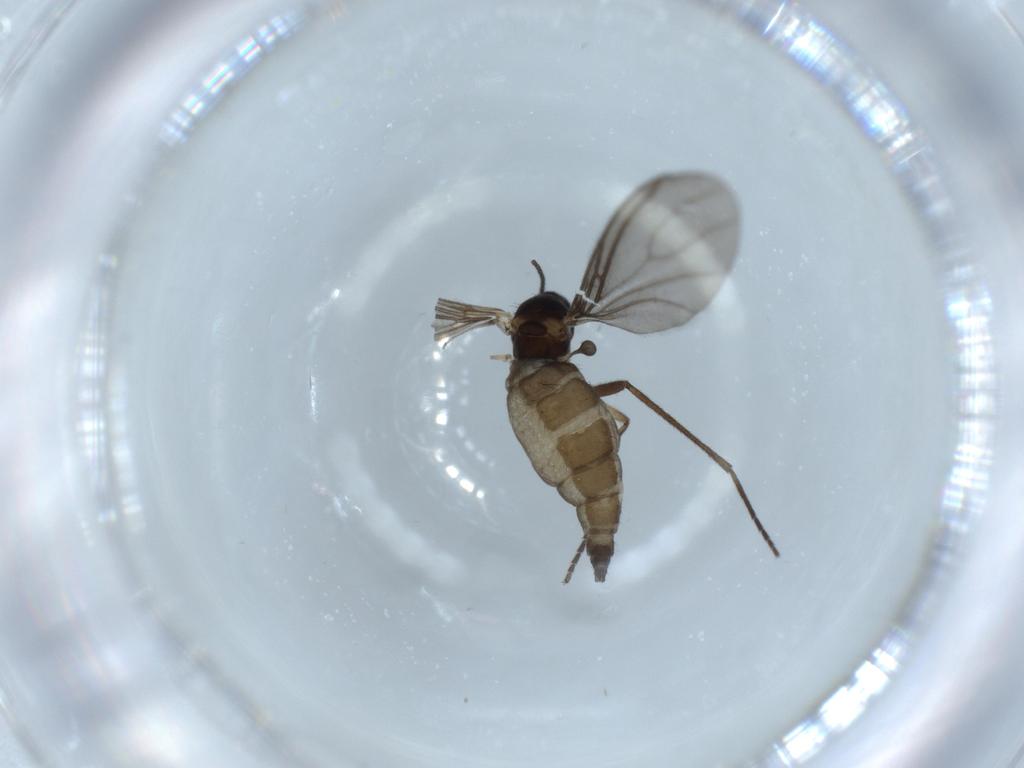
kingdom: Animalia
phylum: Arthropoda
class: Insecta
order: Diptera
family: Sciaridae
